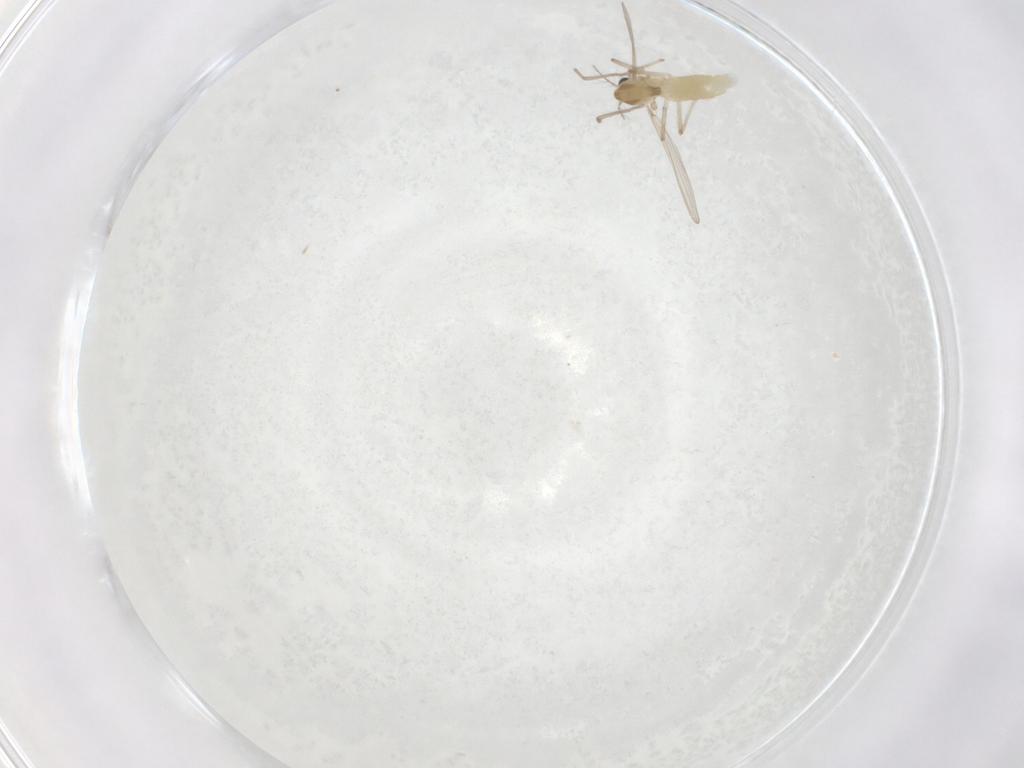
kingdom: Animalia
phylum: Arthropoda
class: Insecta
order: Diptera
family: Chironomidae
